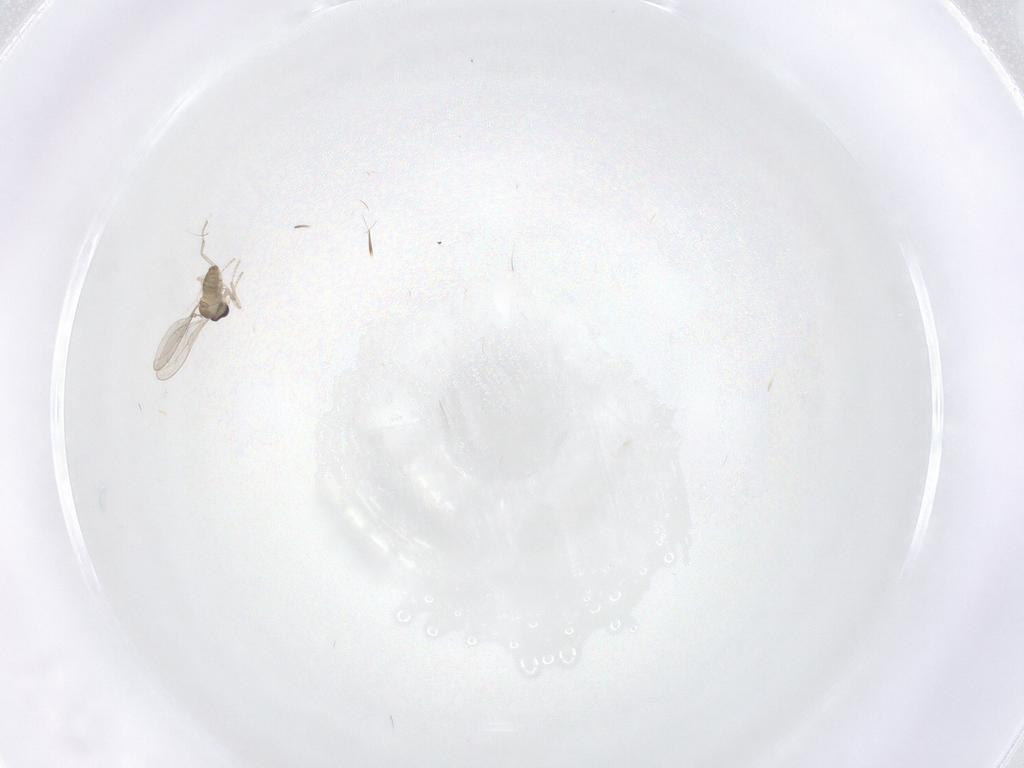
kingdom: Animalia
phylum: Arthropoda
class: Insecta
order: Diptera
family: Cecidomyiidae
